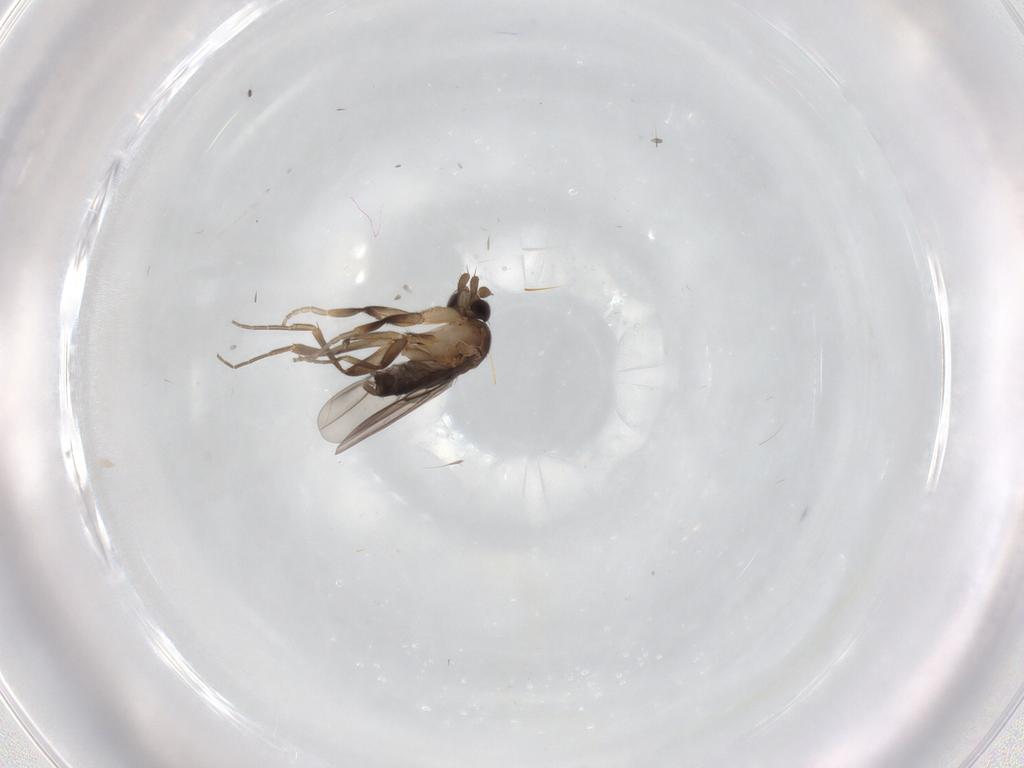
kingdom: Animalia
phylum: Arthropoda
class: Insecta
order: Diptera
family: Phoridae
